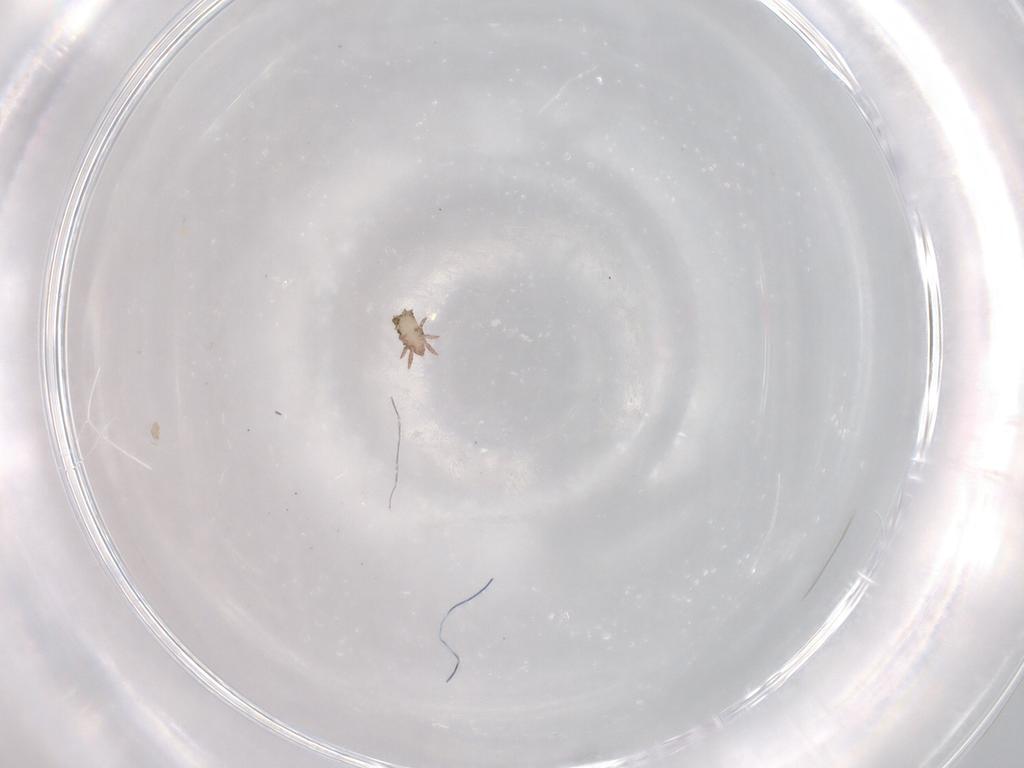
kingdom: Animalia
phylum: Arthropoda
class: Arachnida
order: Trombidiformes
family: Bdellidae
